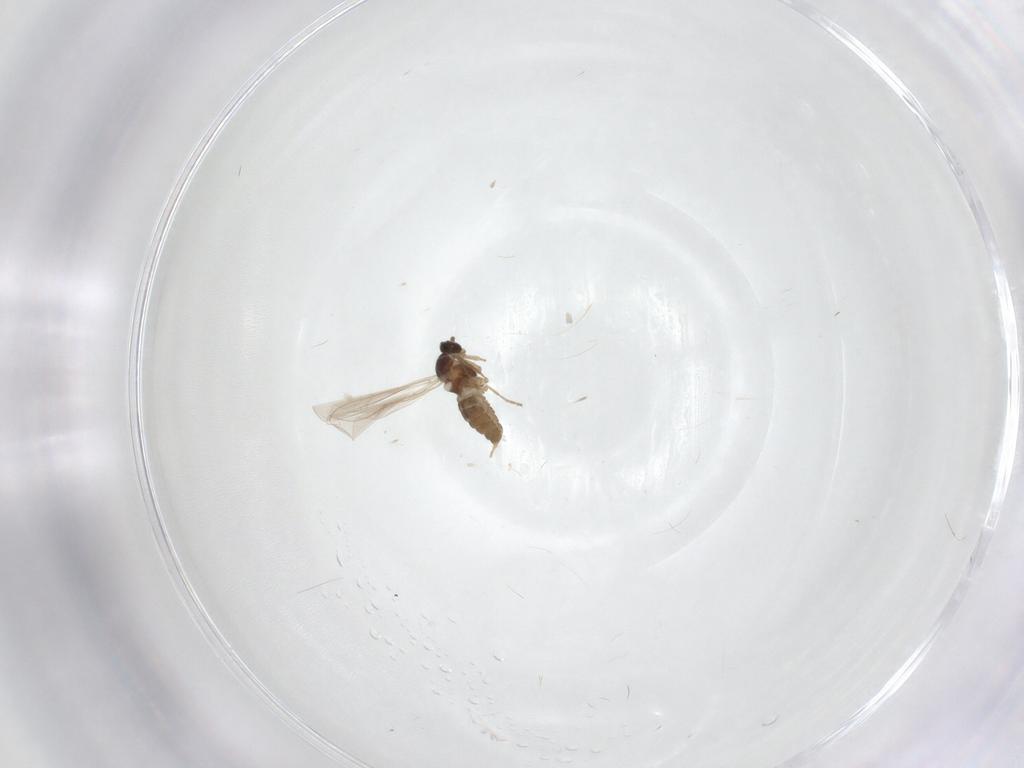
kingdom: Animalia
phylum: Arthropoda
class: Insecta
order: Diptera
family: Cecidomyiidae
